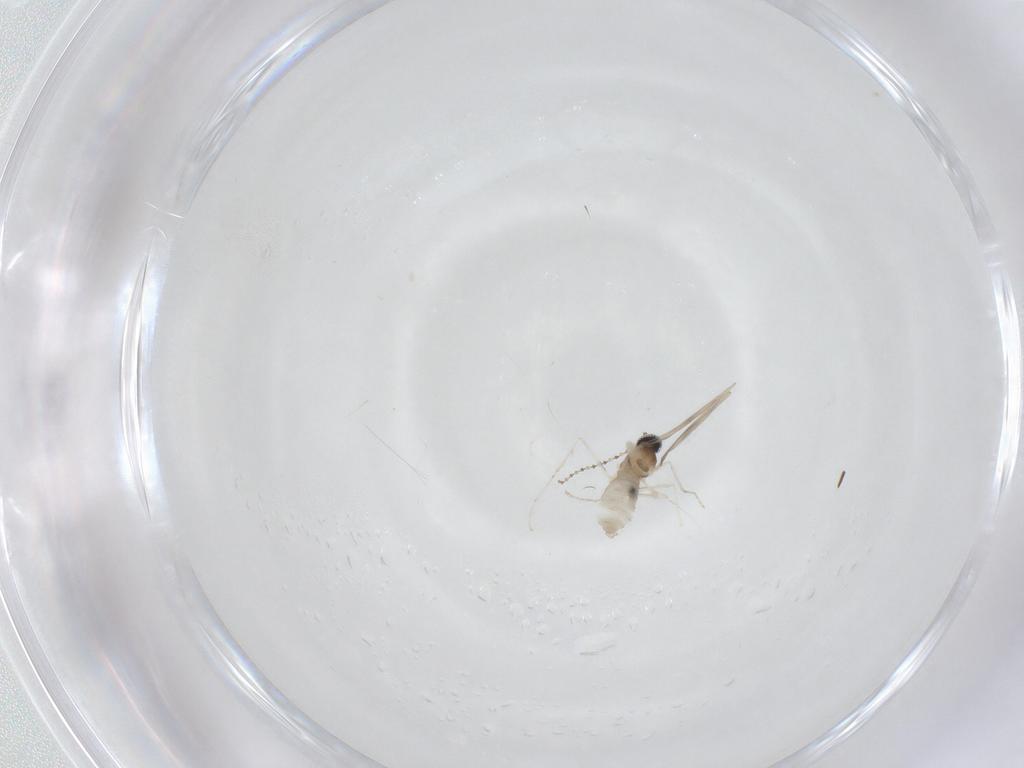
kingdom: Animalia
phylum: Arthropoda
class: Insecta
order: Diptera
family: Cecidomyiidae
